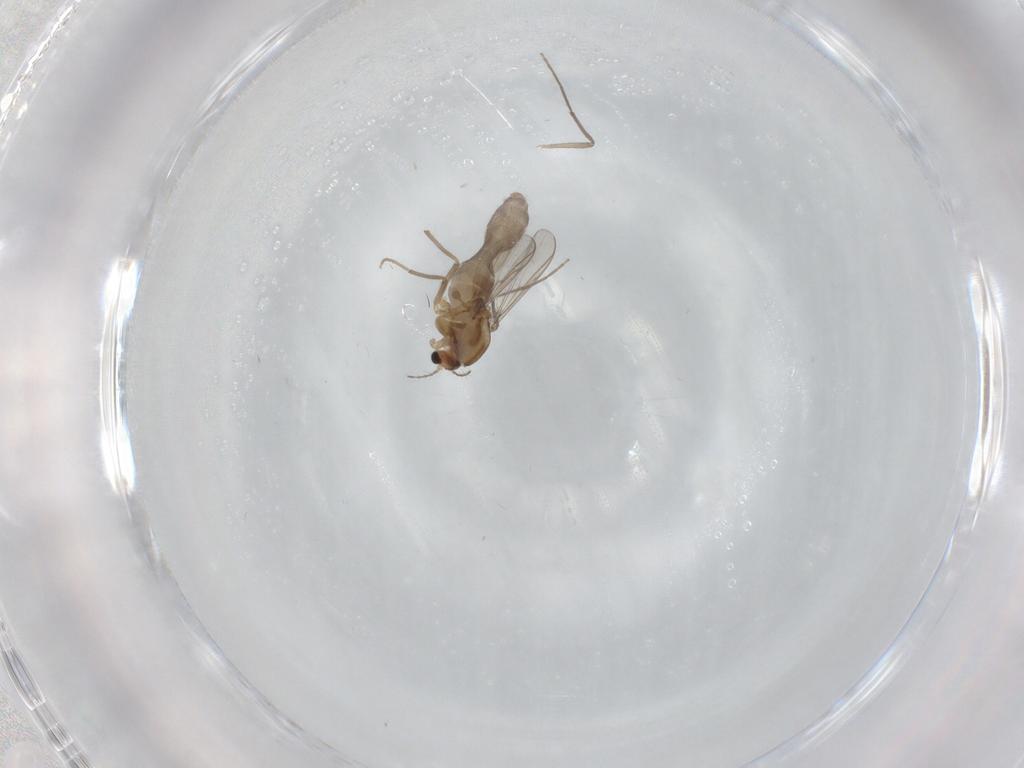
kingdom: Animalia
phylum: Arthropoda
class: Insecta
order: Diptera
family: Chironomidae
